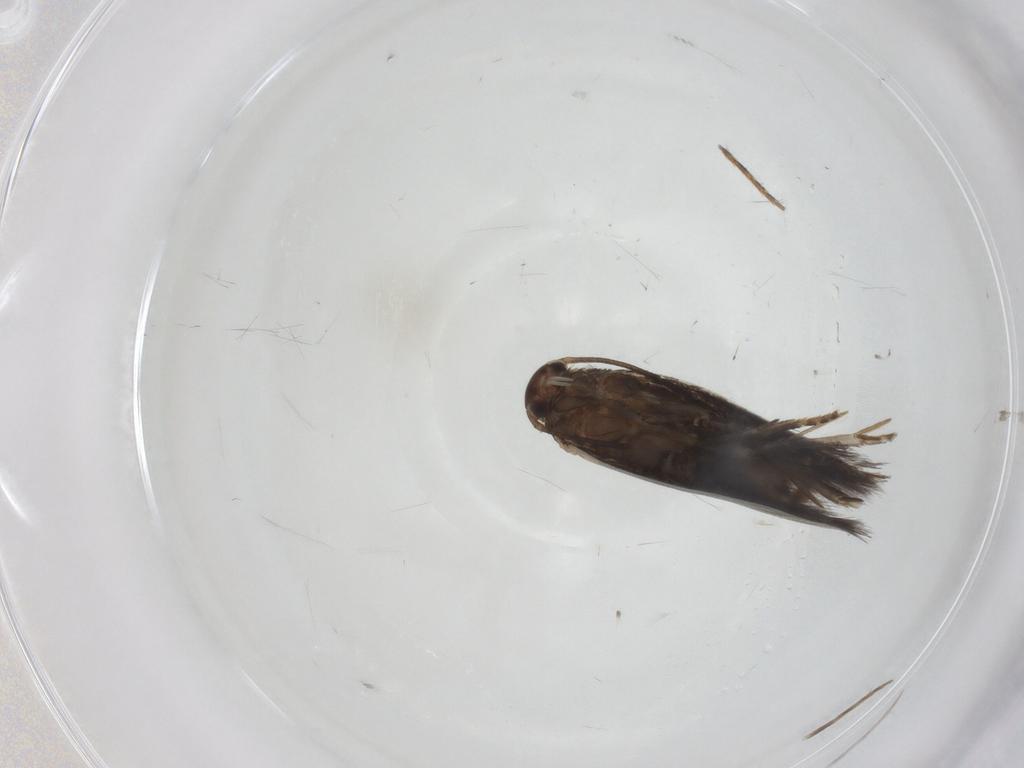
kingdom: Animalia
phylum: Arthropoda
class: Insecta
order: Lepidoptera
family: Elachistidae
